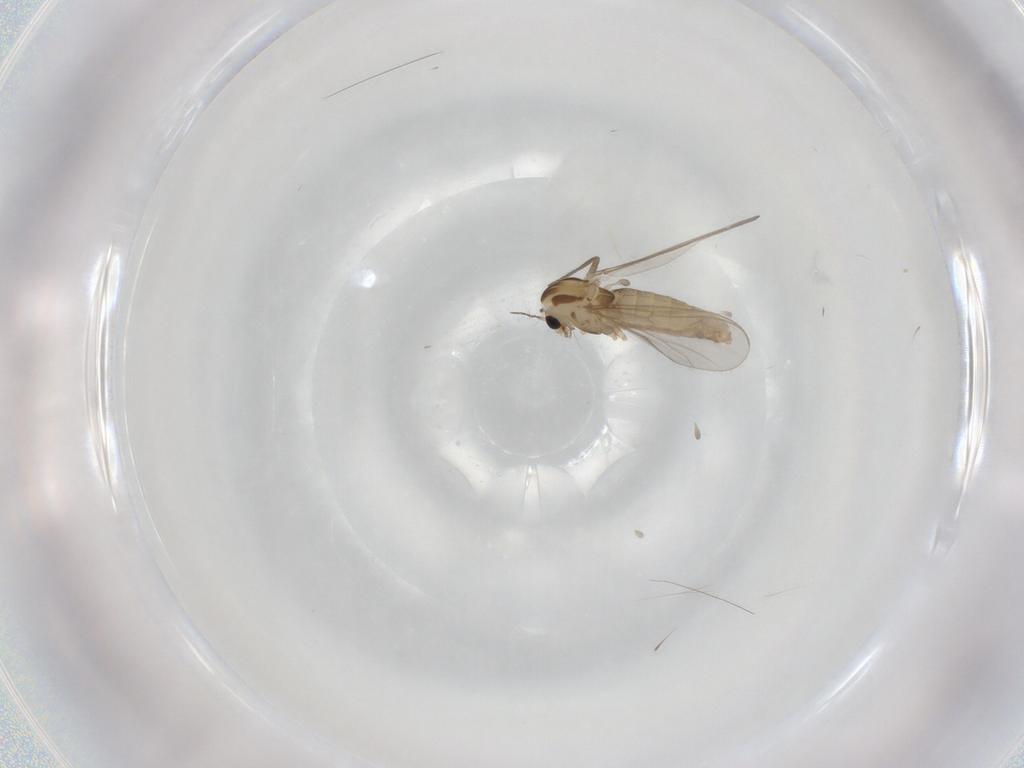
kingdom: Animalia
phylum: Arthropoda
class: Insecta
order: Diptera
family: Chironomidae
